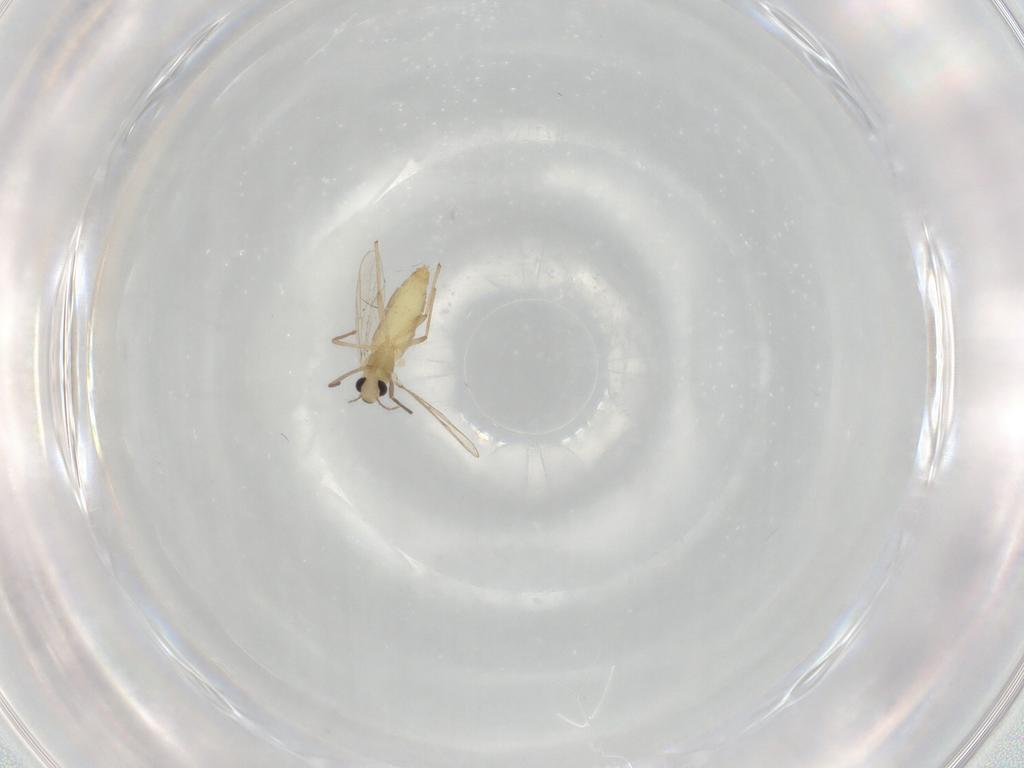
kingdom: Animalia
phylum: Arthropoda
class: Insecta
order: Diptera
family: Chironomidae
